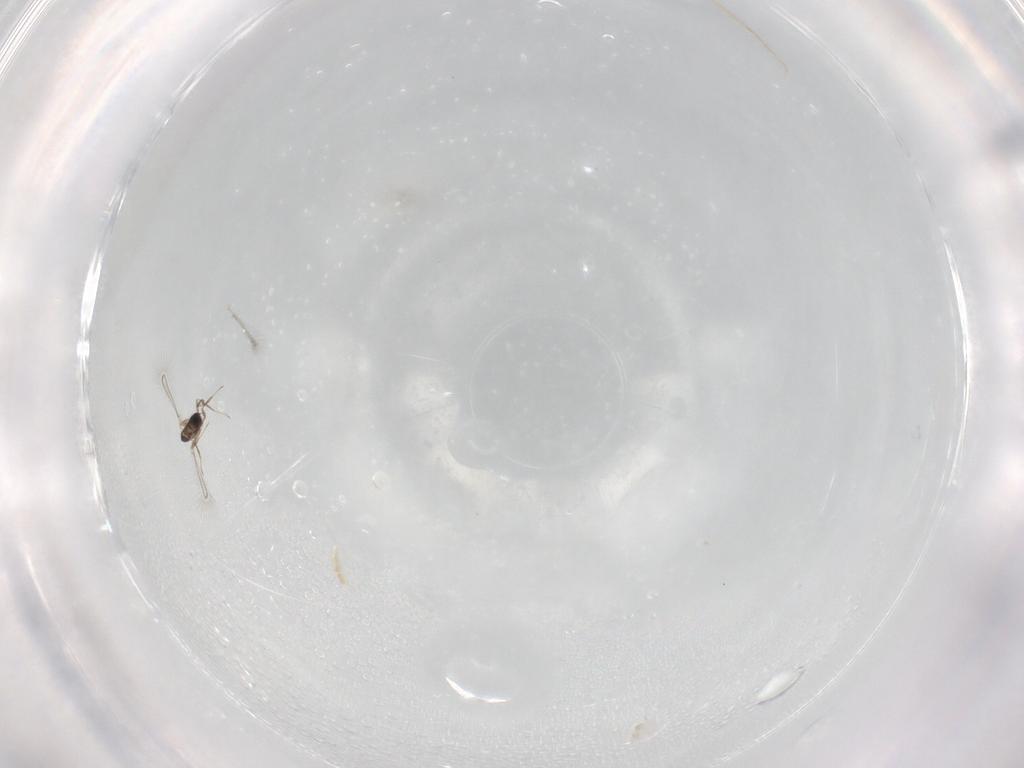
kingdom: Animalia
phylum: Arthropoda
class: Insecta
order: Hymenoptera
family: Mymaridae
